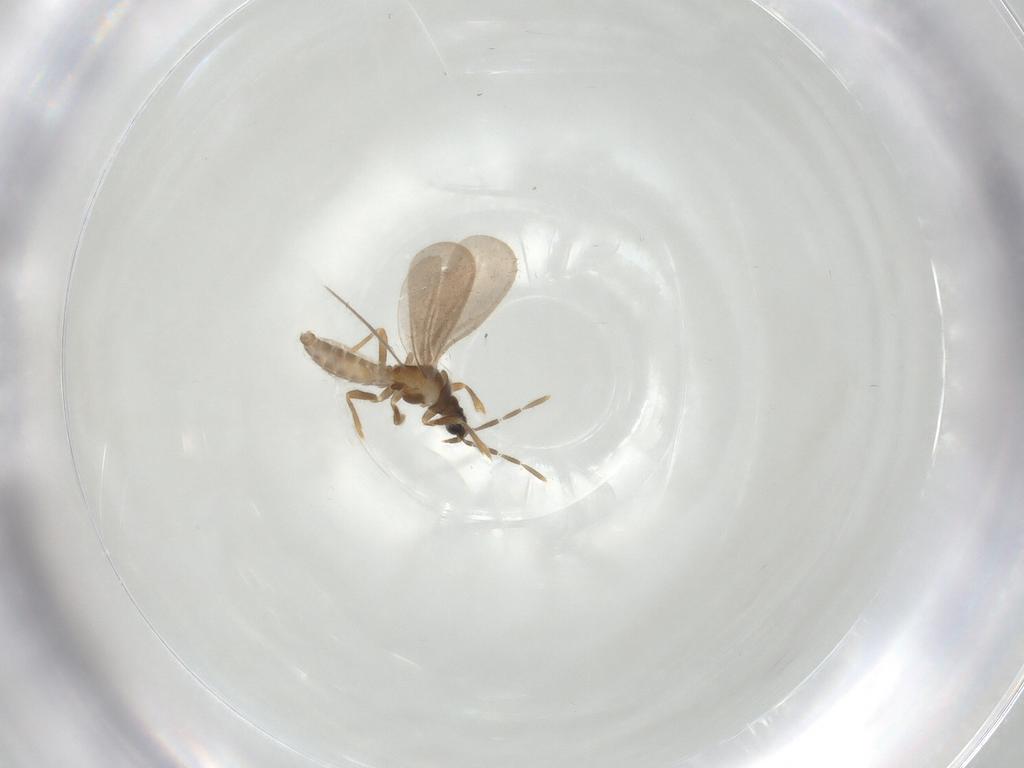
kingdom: Animalia
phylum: Arthropoda
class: Insecta
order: Hemiptera
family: Enicocephalidae
